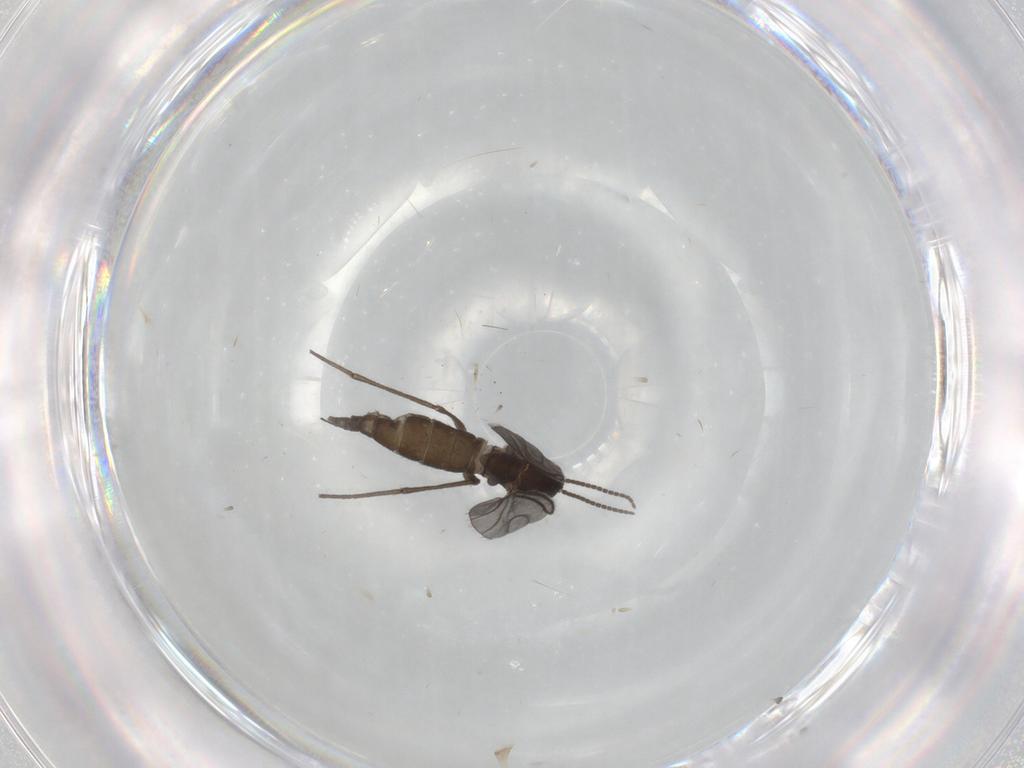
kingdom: Animalia
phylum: Arthropoda
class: Insecta
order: Diptera
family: Sciaridae
